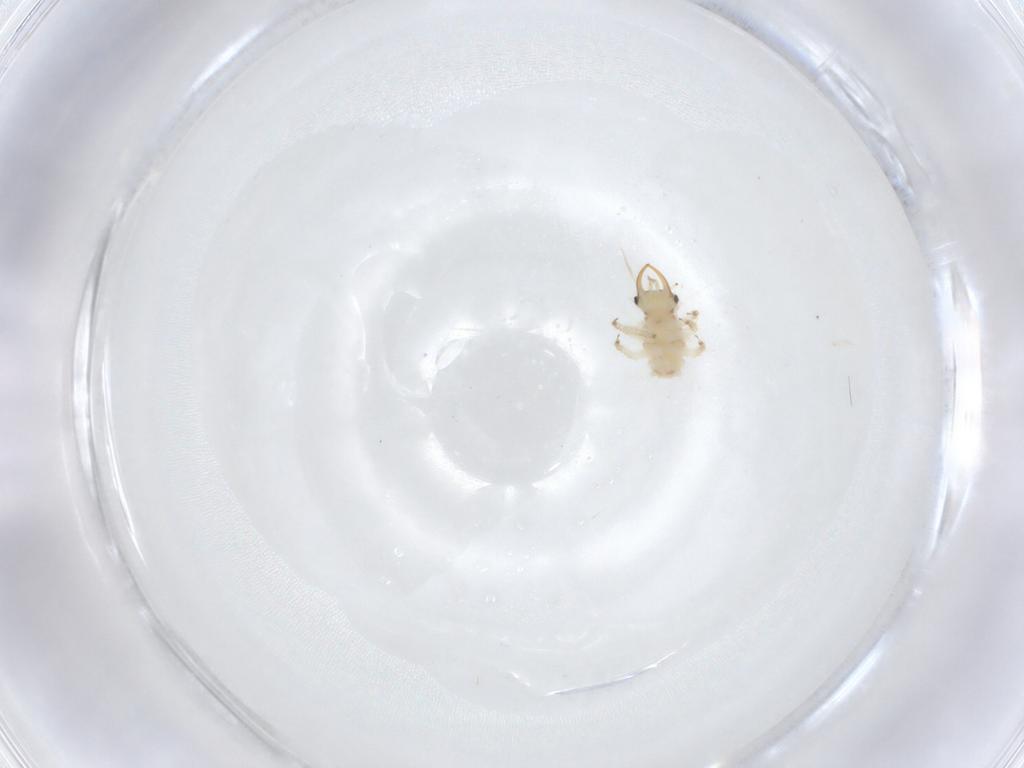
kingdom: Animalia
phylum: Arthropoda
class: Insecta
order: Neuroptera
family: Chrysopidae
